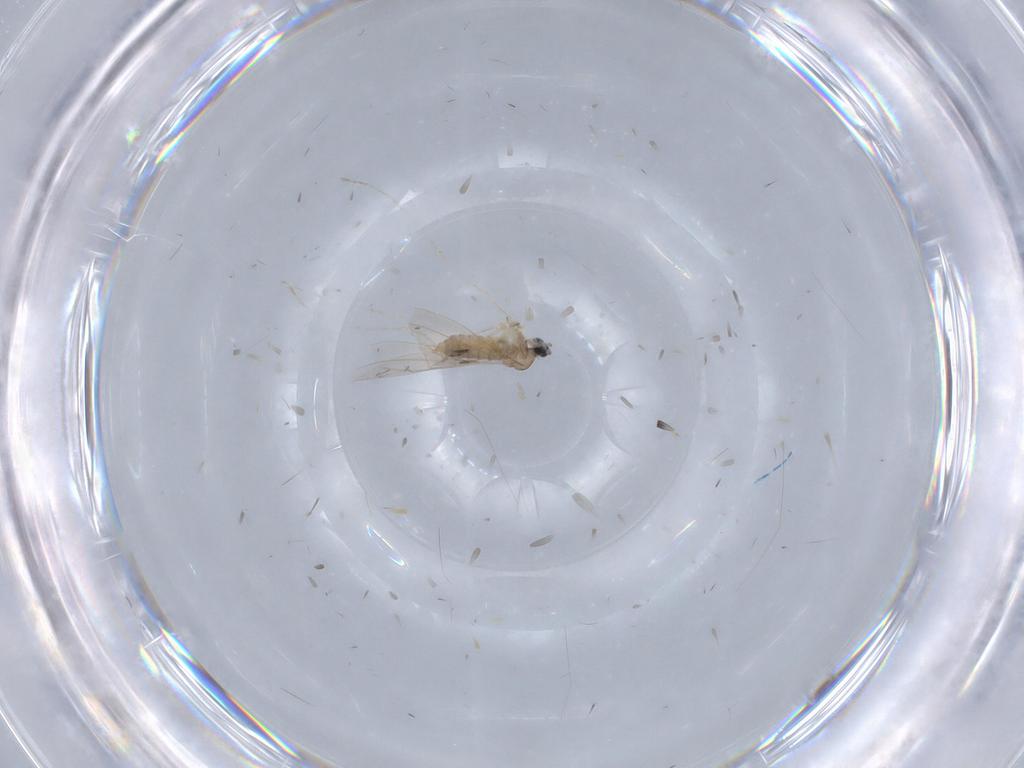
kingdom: Animalia
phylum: Arthropoda
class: Insecta
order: Diptera
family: Cecidomyiidae
